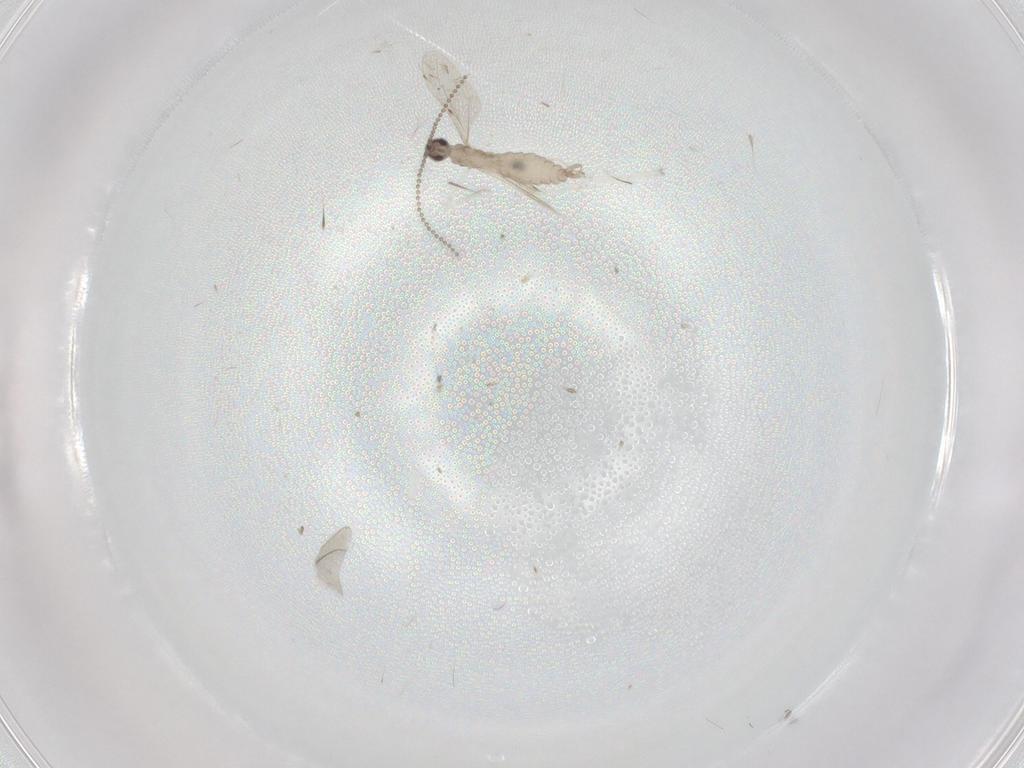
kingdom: Animalia
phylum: Arthropoda
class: Insecta
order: Diptera
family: Cecidomyiidae
